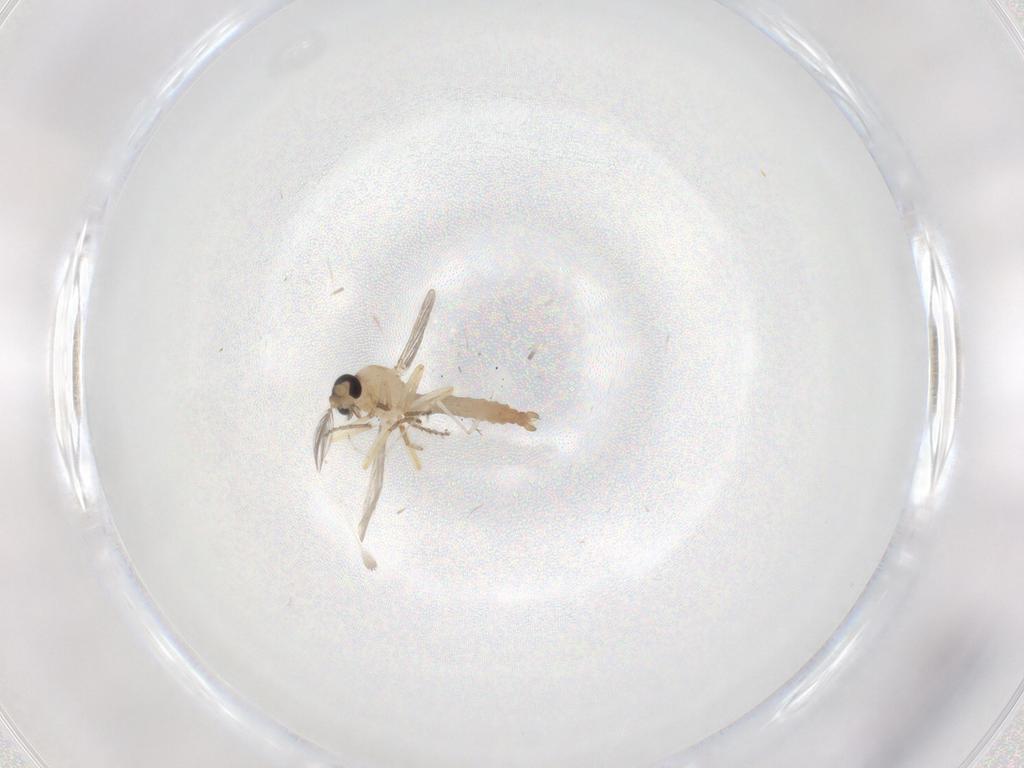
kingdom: Animalia
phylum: Arthropoda
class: Insecta
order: Diptera
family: Ceratopogonidae
